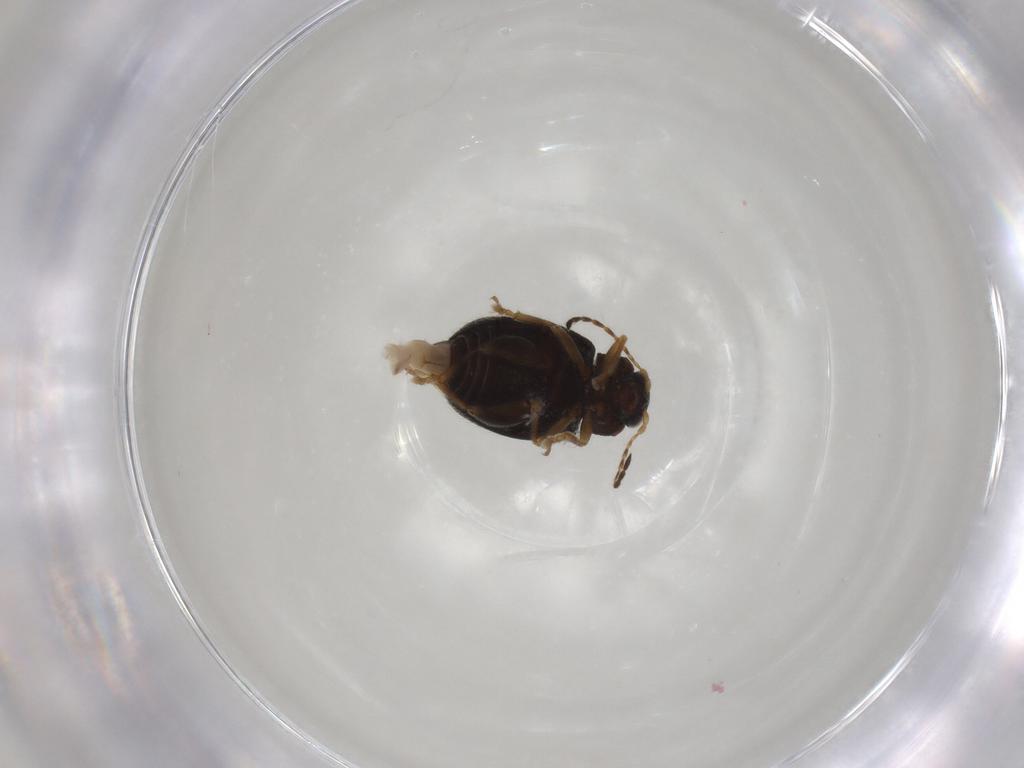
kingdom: Animalia
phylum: Arthropoda
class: Insecta
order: Coleoptera
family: Chrysomelidae
